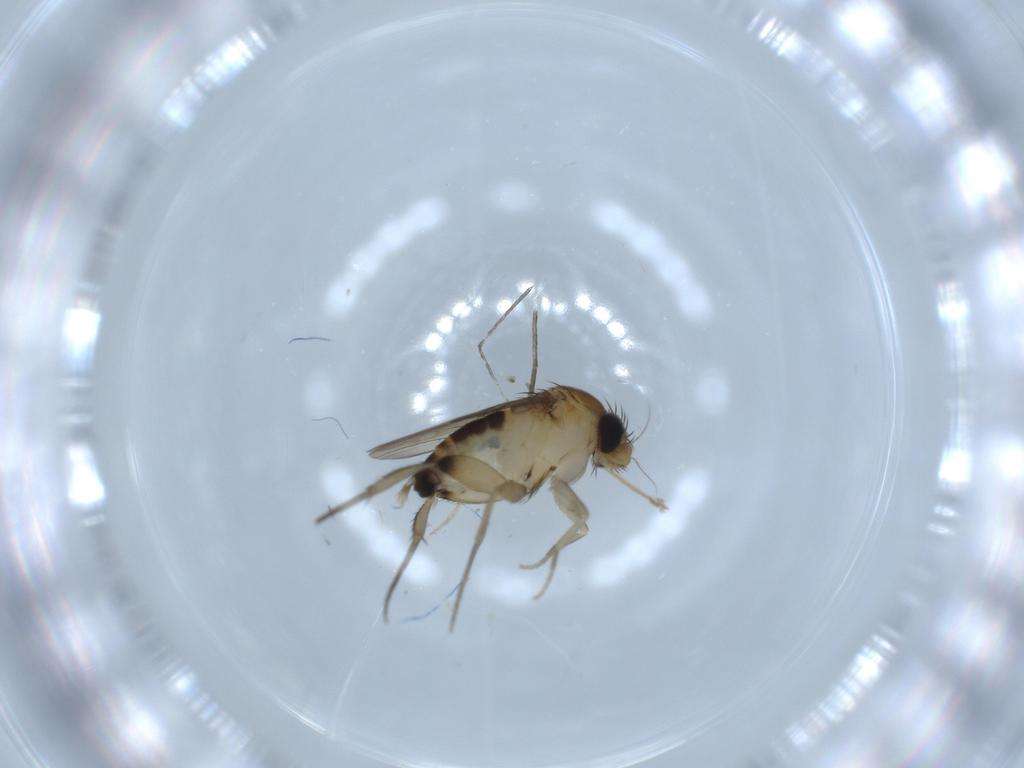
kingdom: Animalia
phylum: Arthropoda
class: Insecta
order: Diptera
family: Phoridae
